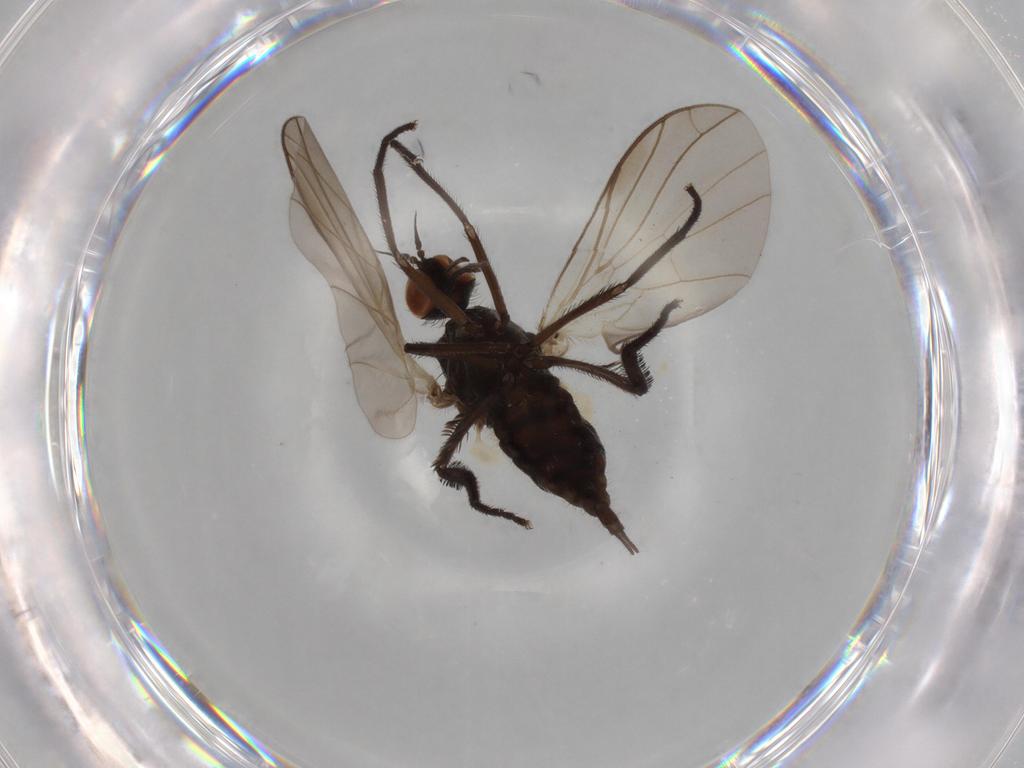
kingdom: Animalia
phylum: Arthropoda
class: Insecta
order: Diptera
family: Empididae
